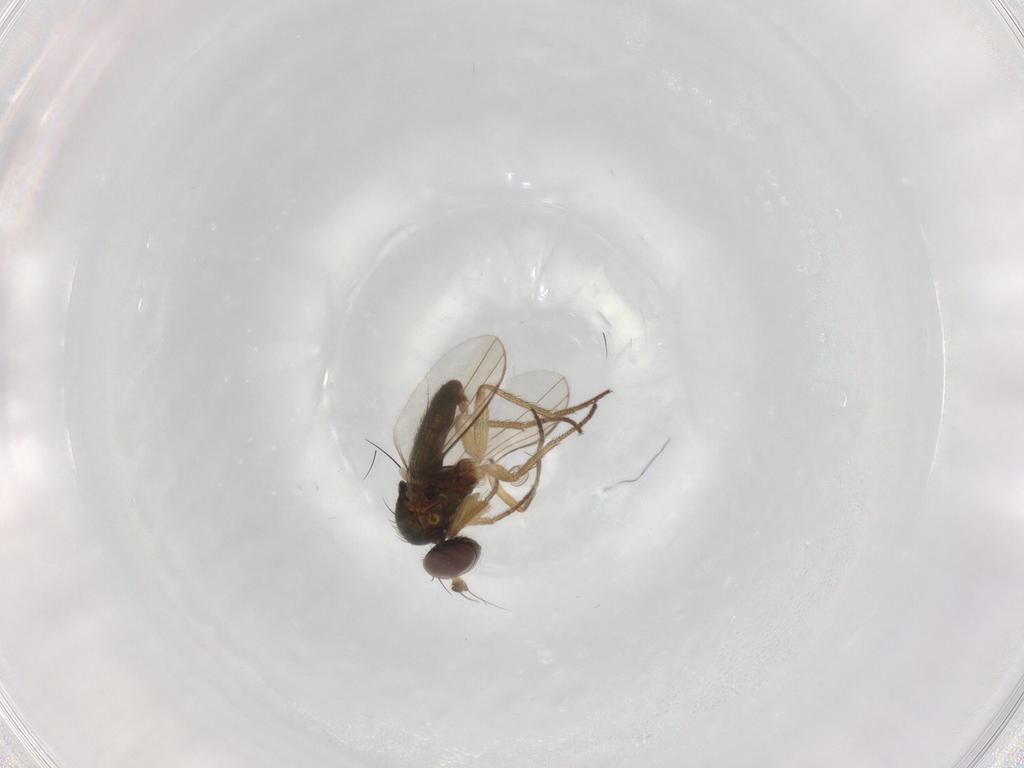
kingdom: Animalia
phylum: Arthropoda
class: Insecta
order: Diptera
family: Dolichopodidae
